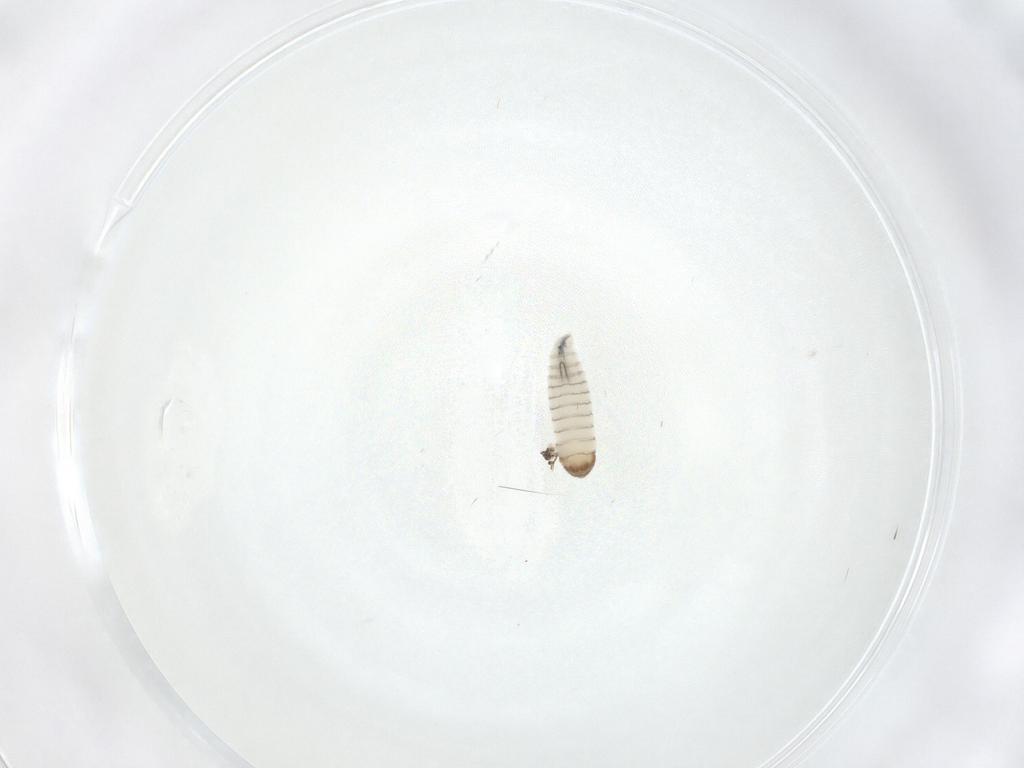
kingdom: Animalia
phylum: Arthropoda
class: Insecta
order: Diptera
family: Sarcophagidae
